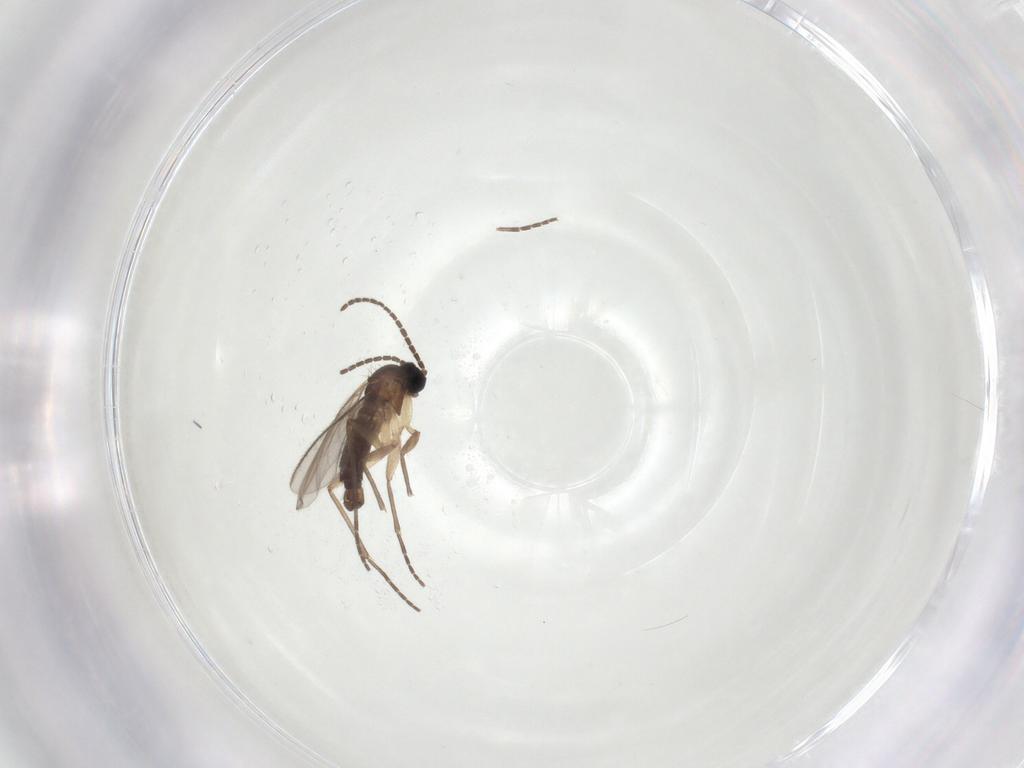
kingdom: Animalia
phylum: Arthropoda
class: Insecta
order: Diptera
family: Sciaridae
